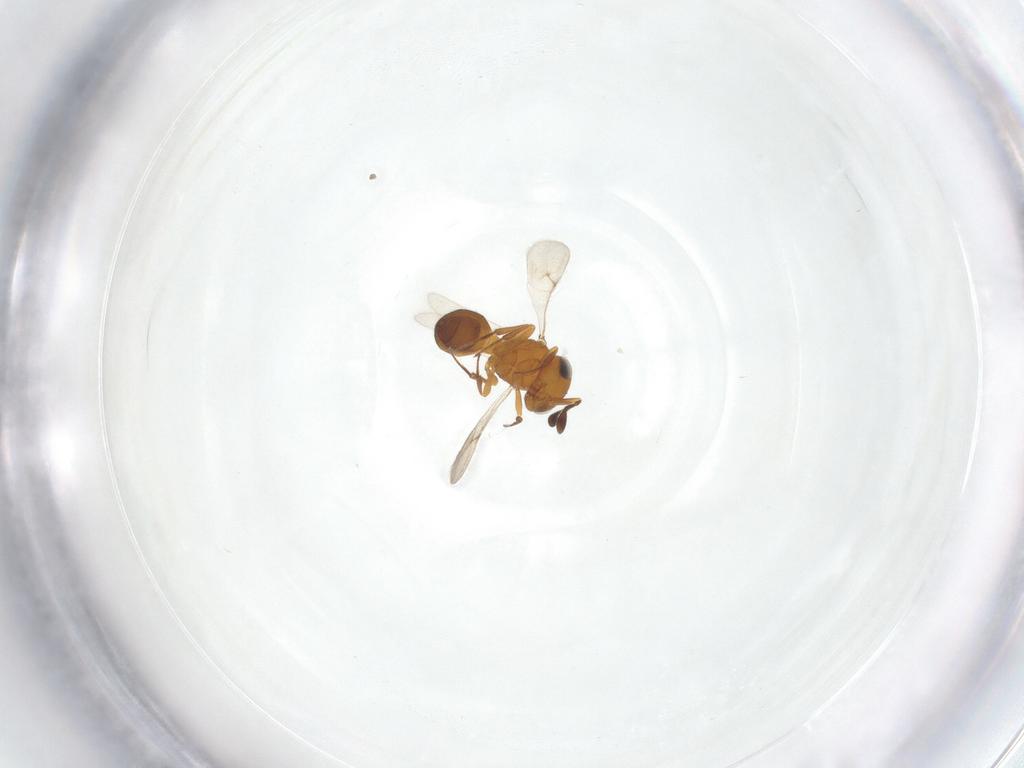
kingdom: Animalia
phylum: Arthropoda
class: Insecta
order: Hymenoptera
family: Scelionidae
